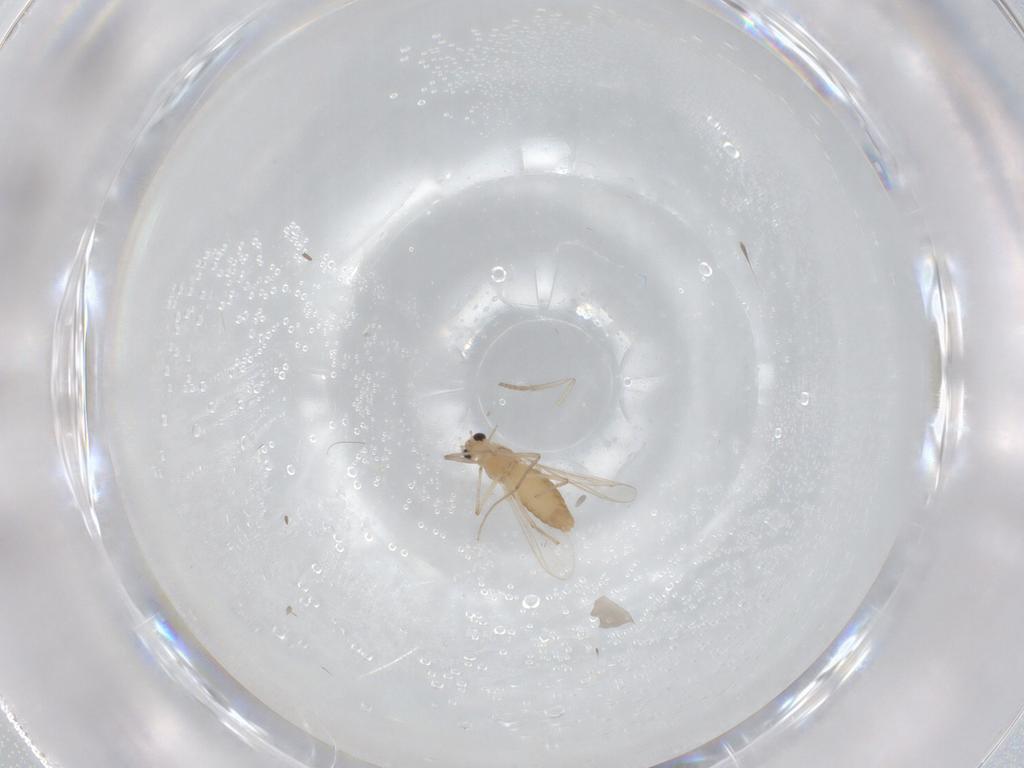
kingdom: Animalia
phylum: Arthropoda
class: Insecta
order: Diptera
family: Chironomidae
